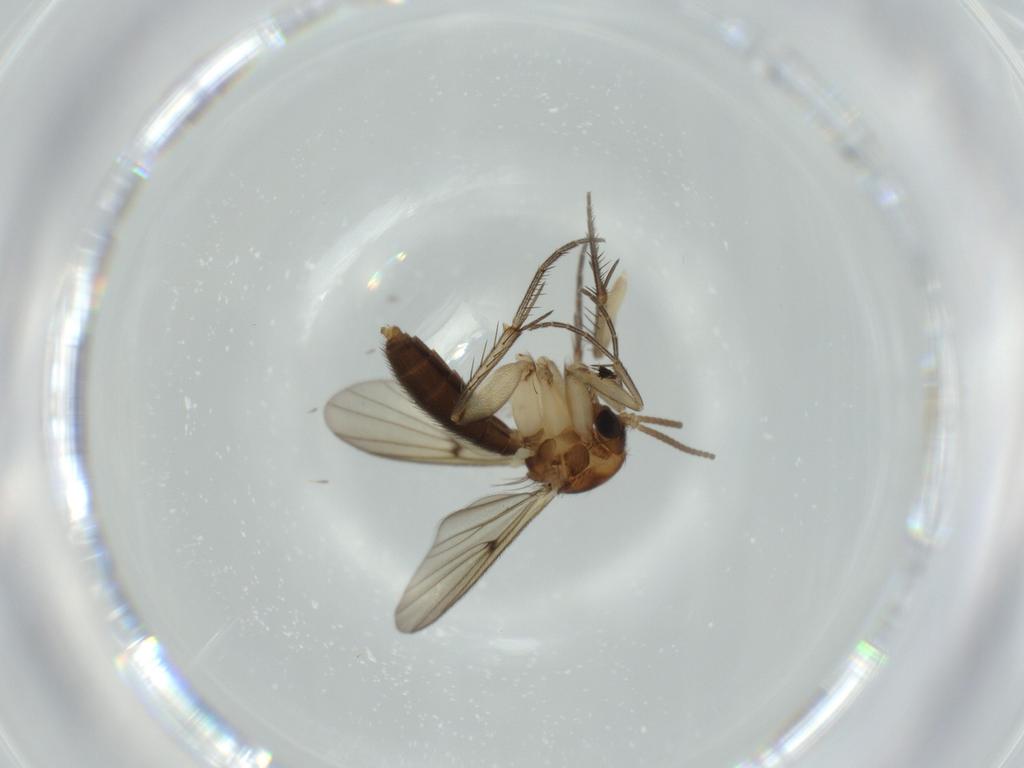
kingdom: Animalia
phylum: Arthropoda
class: Insecta
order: Diptera
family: Mycetophilidae
